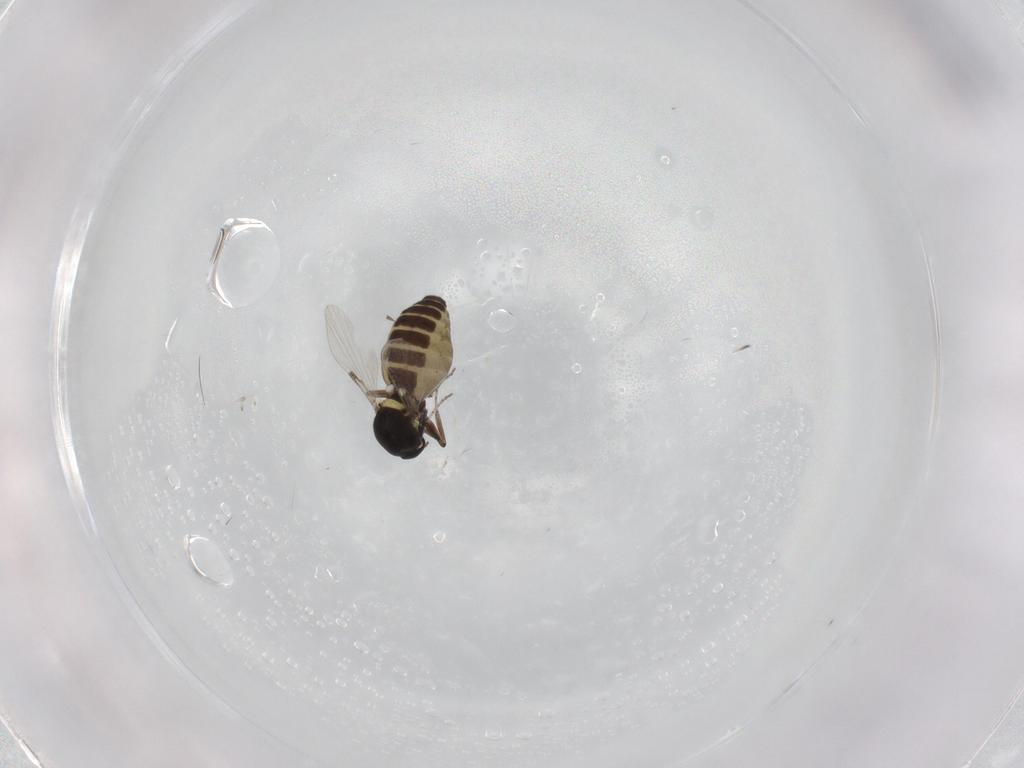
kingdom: Animalia
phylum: Arthropoda
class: Insecta
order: Diptera
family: Ceratopogonidae
